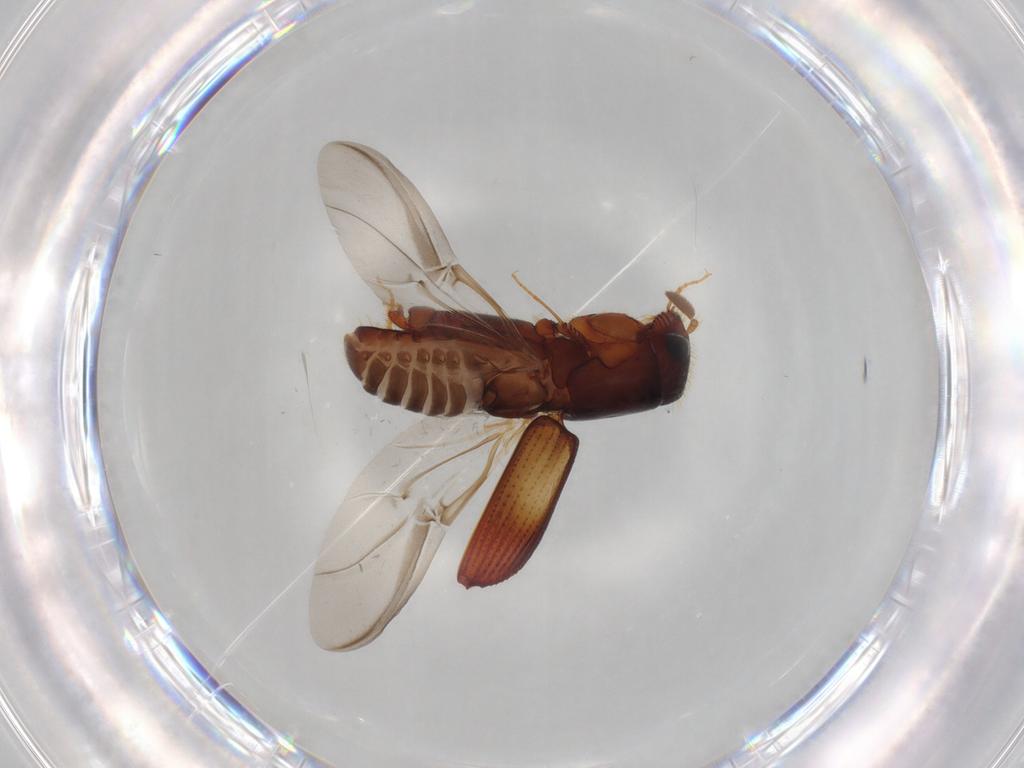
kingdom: Animalia
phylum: Arthropoda
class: Insecta
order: Coleoptera
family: Curculionidae
